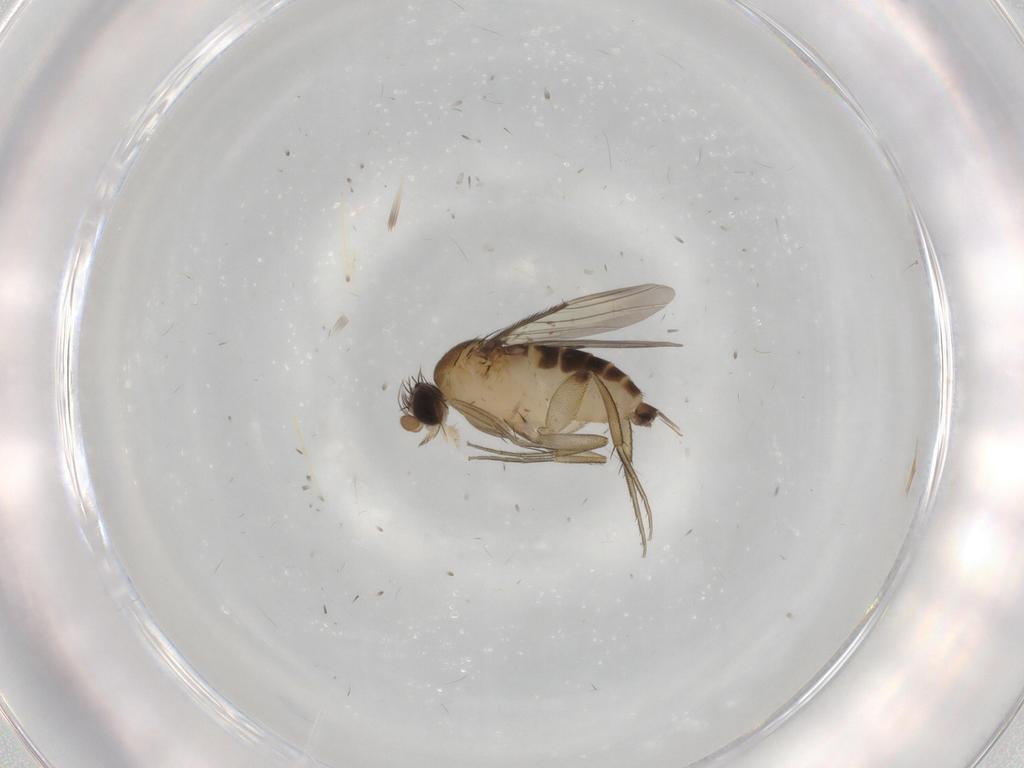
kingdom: Animalia
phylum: Arthropoda
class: Insecta
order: Diptera
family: Phoridae
